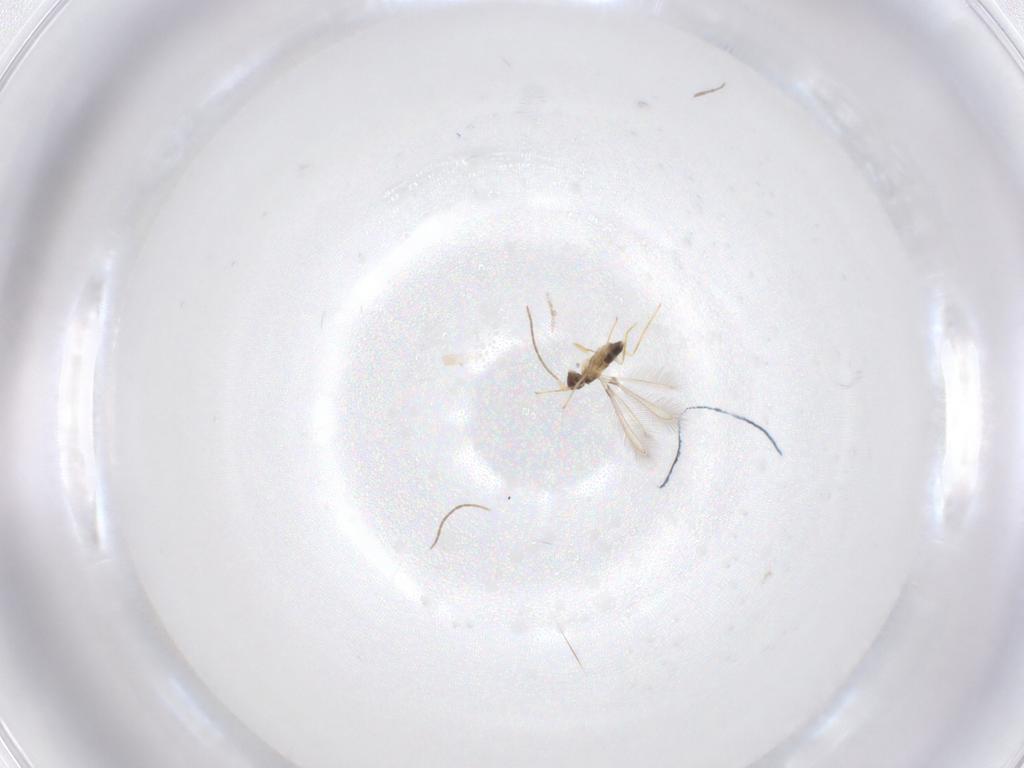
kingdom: Animalia
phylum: Arthropoda
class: Insecta
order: Hymenoptera
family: Mymaridae
